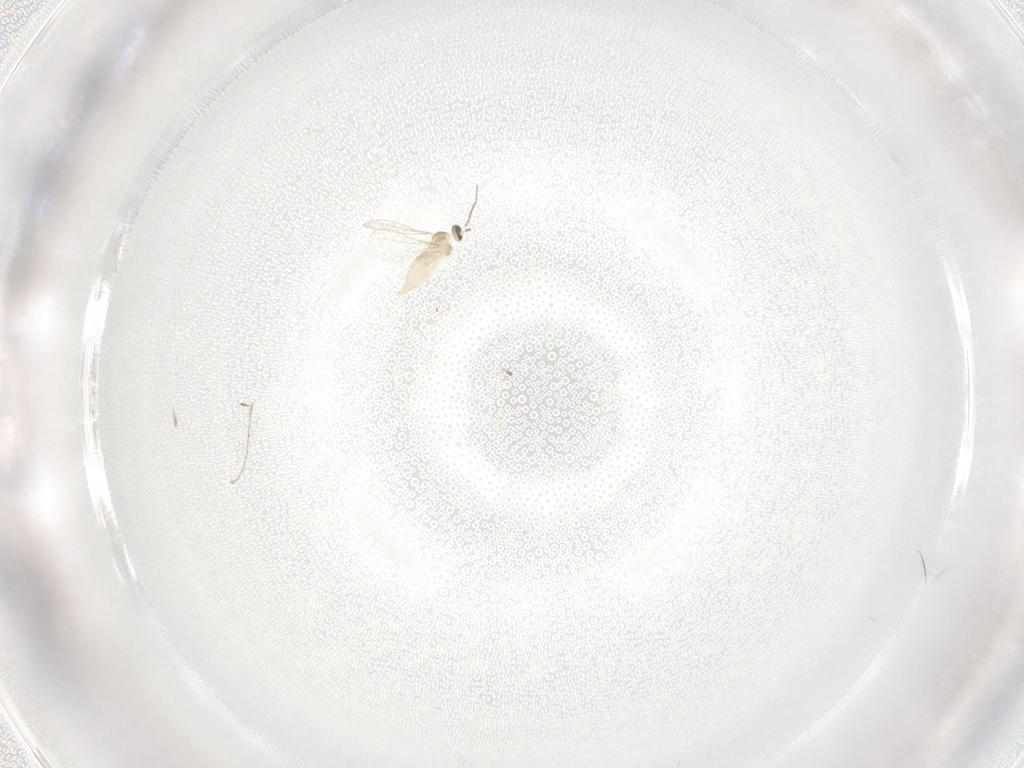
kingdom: Animalia
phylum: Arthropoda
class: Insecta
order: Diptera
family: Cecidomyiidae
